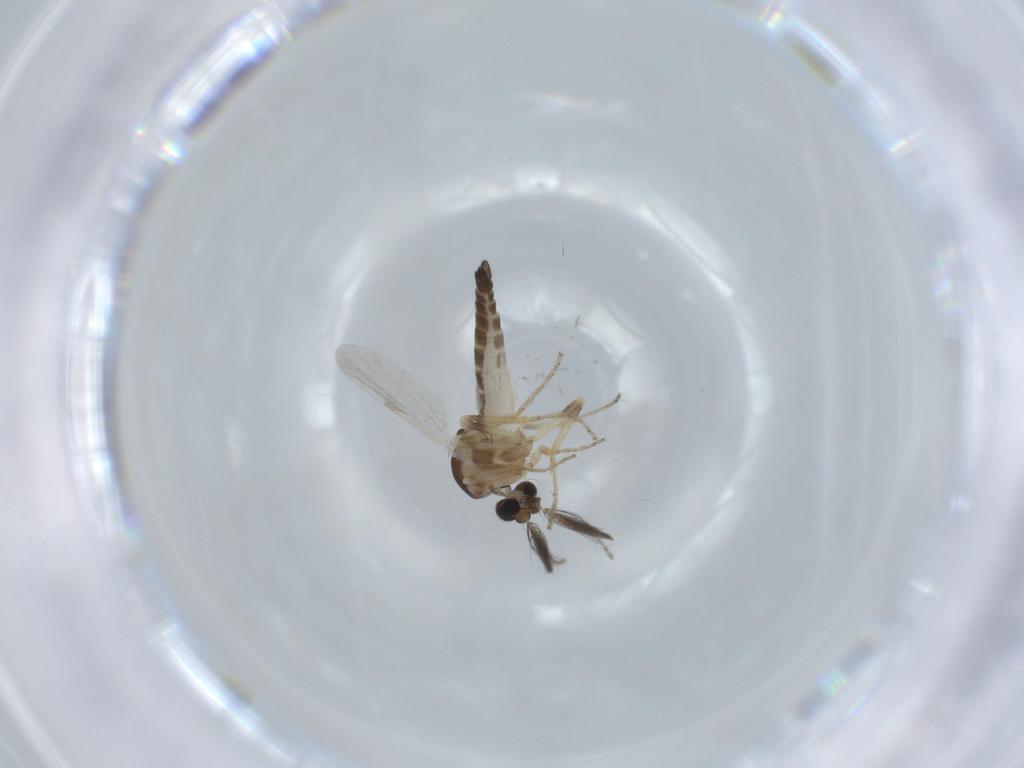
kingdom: Animalia
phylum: Arthropoda
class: Insecta
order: Diptera
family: Ceratopogonidae
